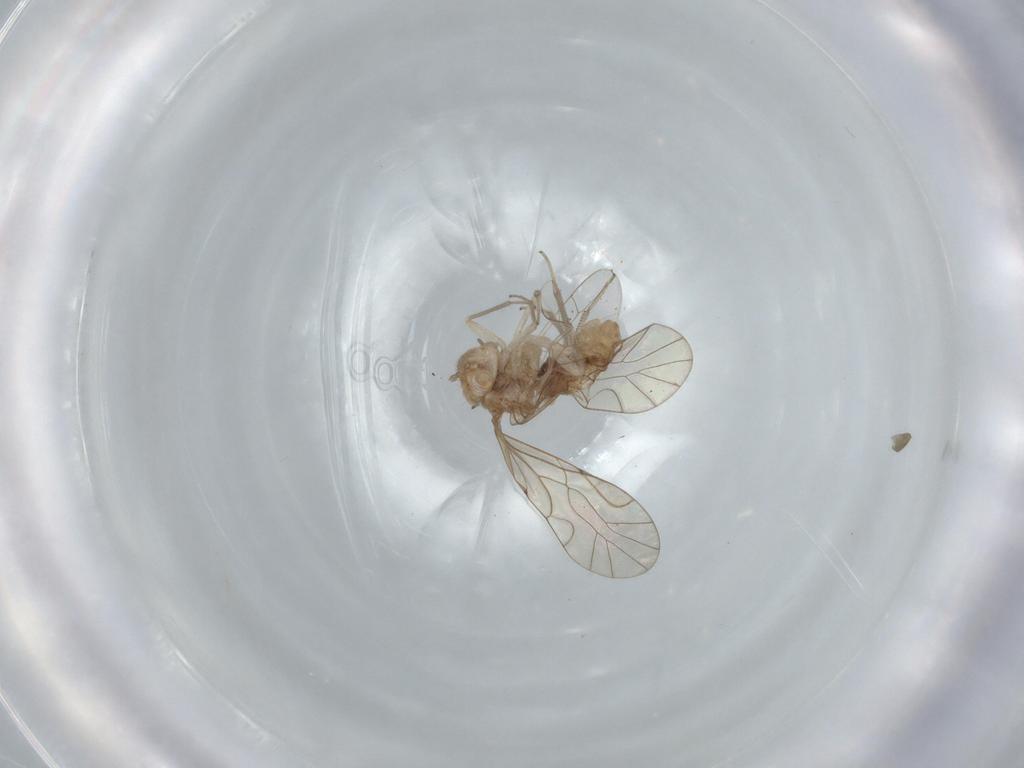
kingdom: Animalia
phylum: Arthropoda
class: Insecta
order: Psocodea
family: Lachesillidae
